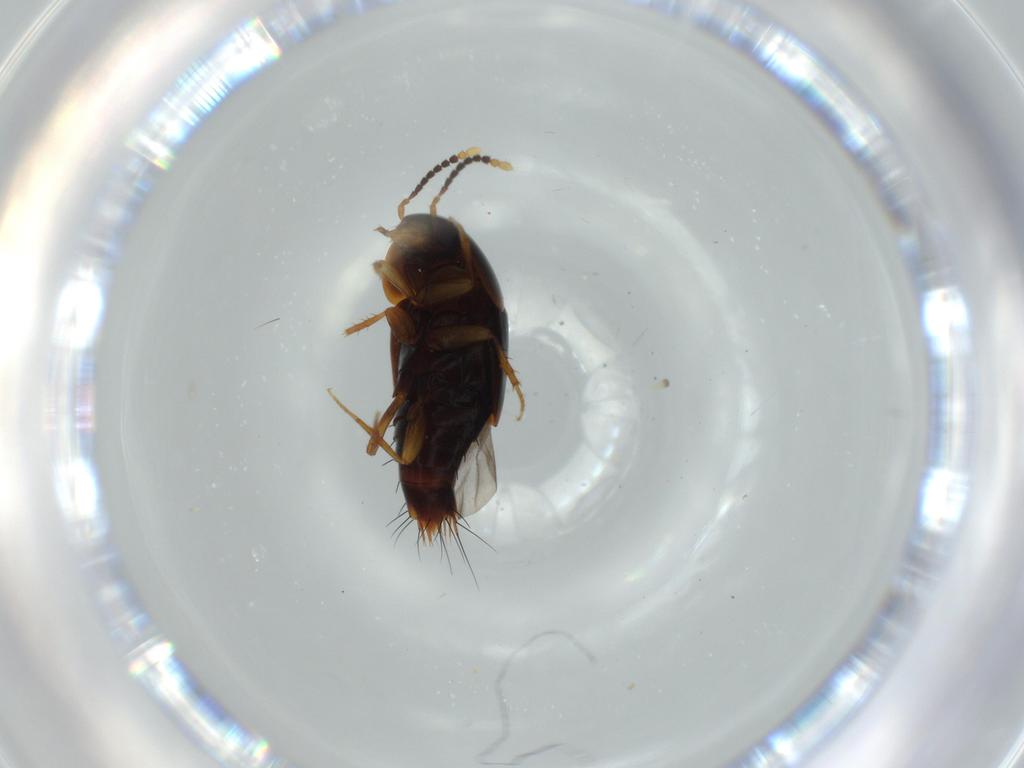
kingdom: Animalia
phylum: Arthropoda
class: Insecta
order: Coleoptera
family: Staphylinidae
